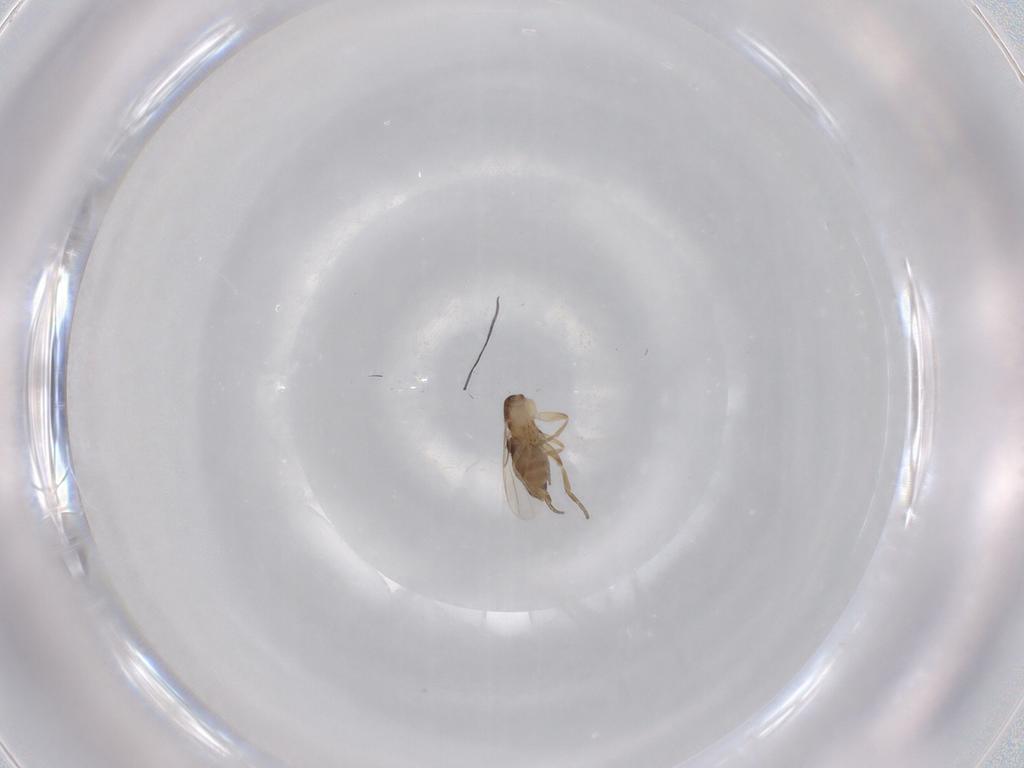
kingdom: Animalia
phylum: Arthropoda
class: Insecta
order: Diptera
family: Phoridae
